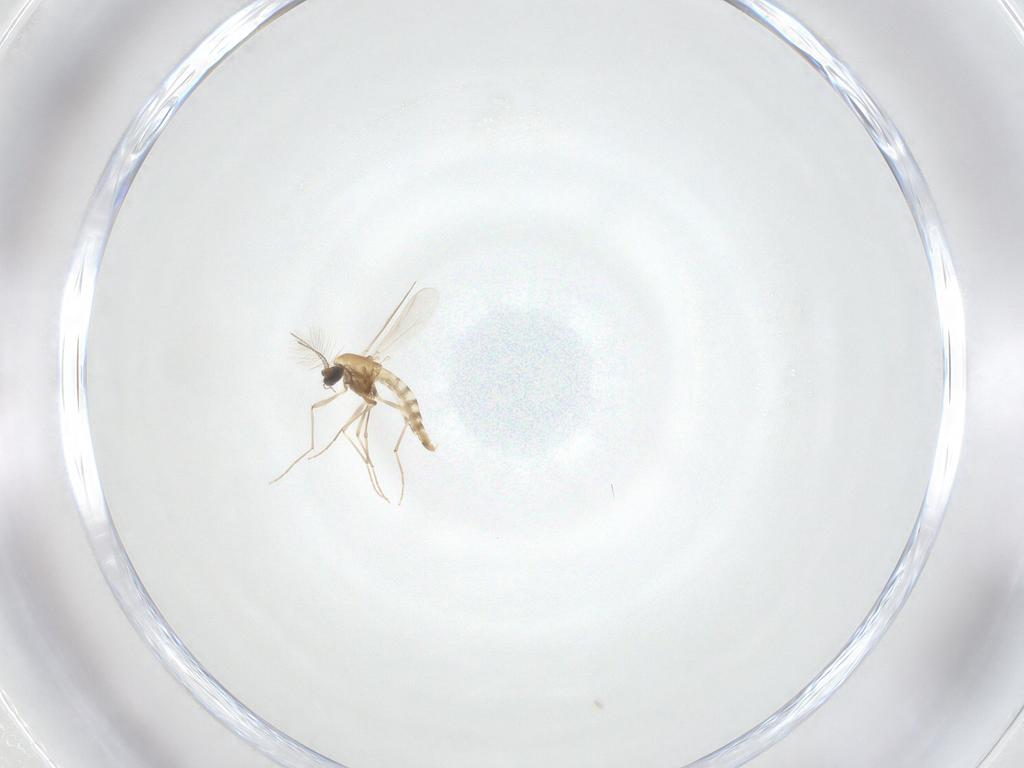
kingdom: Animalia
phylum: Arthropoda
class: Insecta
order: Diptera
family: Chironomidae
